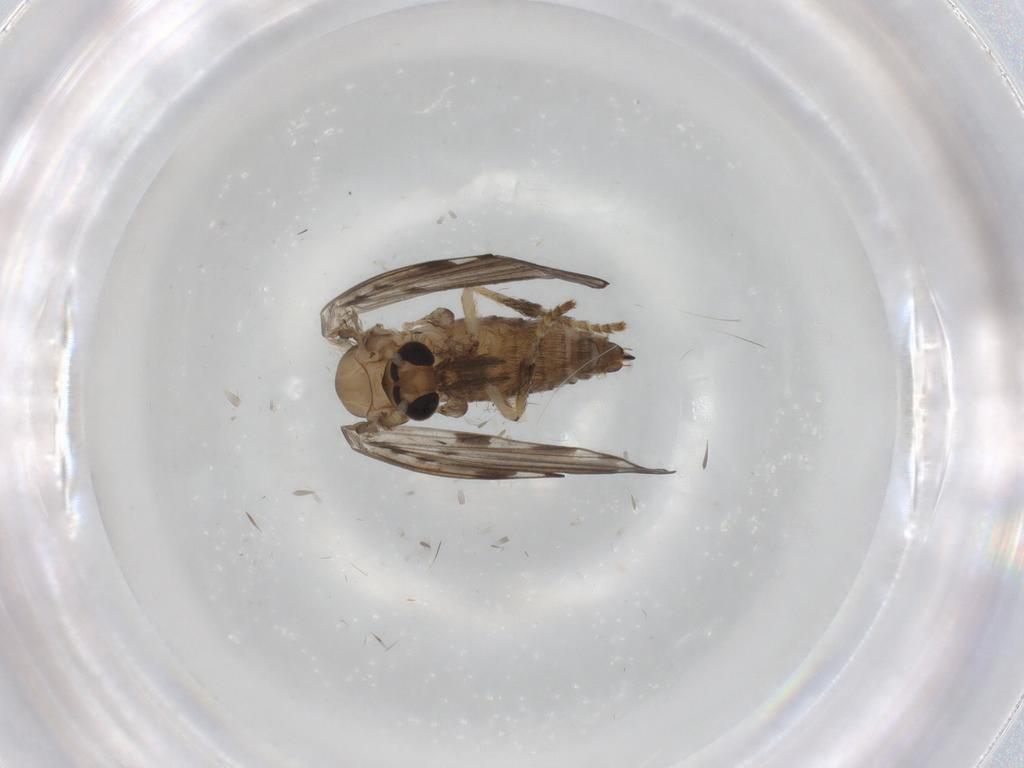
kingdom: Animalia
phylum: Arthropoda
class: Insecta
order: Diptera
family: Psychodidae
